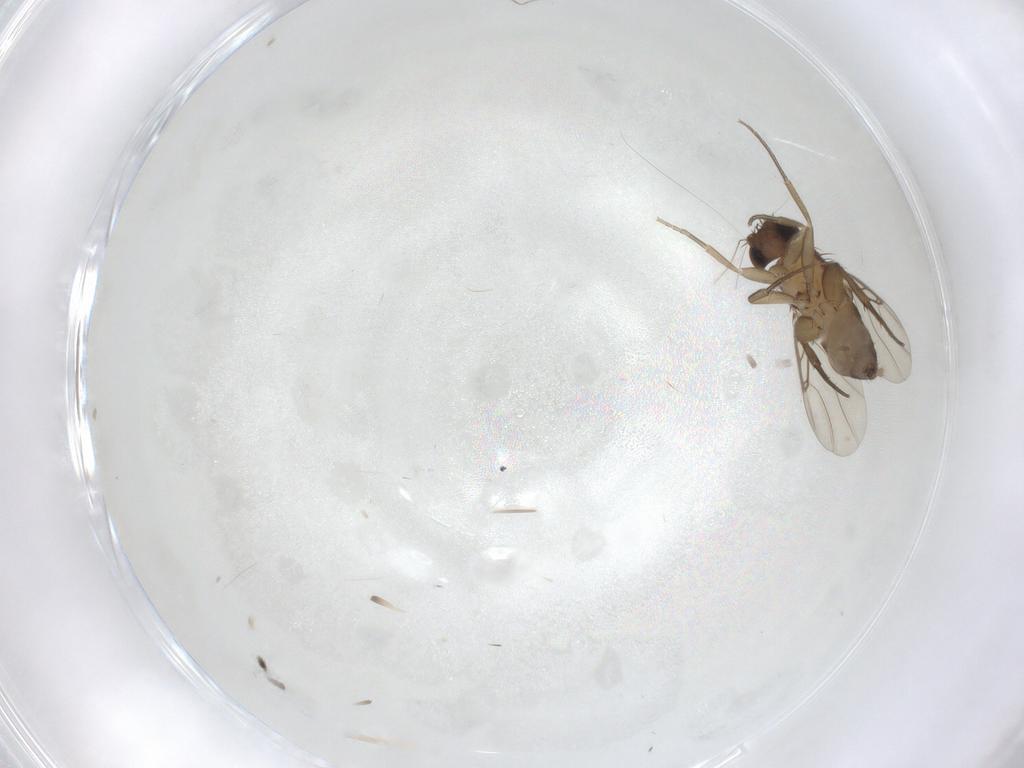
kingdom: Animalia
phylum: Arthropoda
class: Insecta
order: Diptera
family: Phoridae
